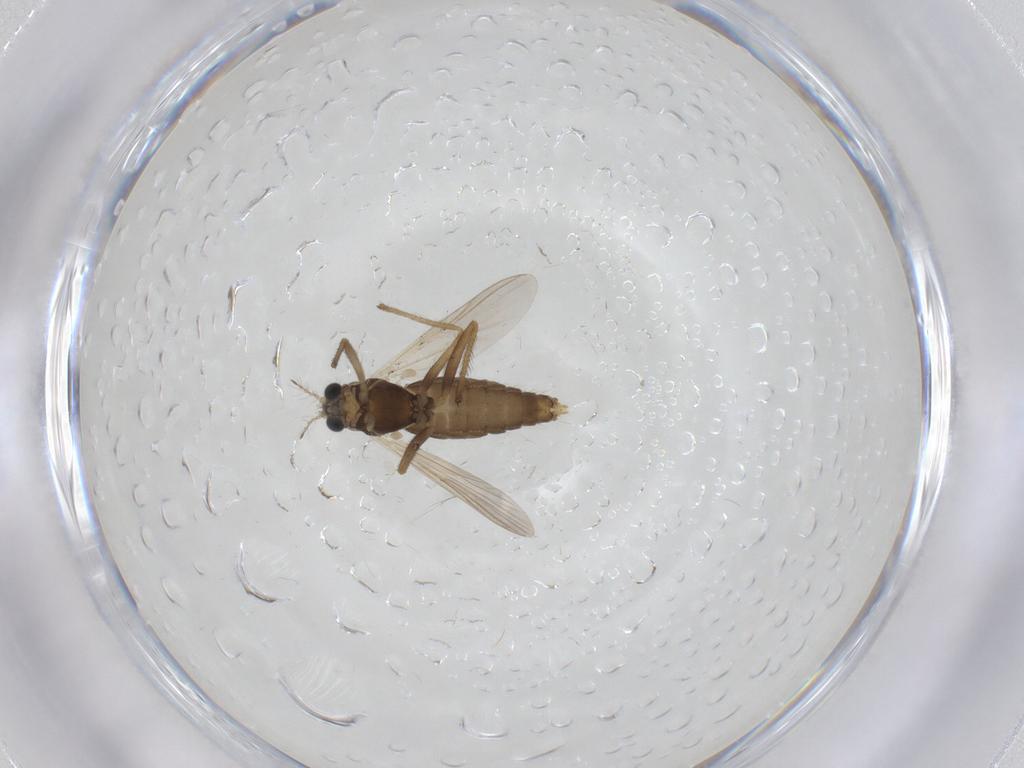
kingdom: Animalia
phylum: Arthropoda
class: Insecta
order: Diptera
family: Chironomidae
